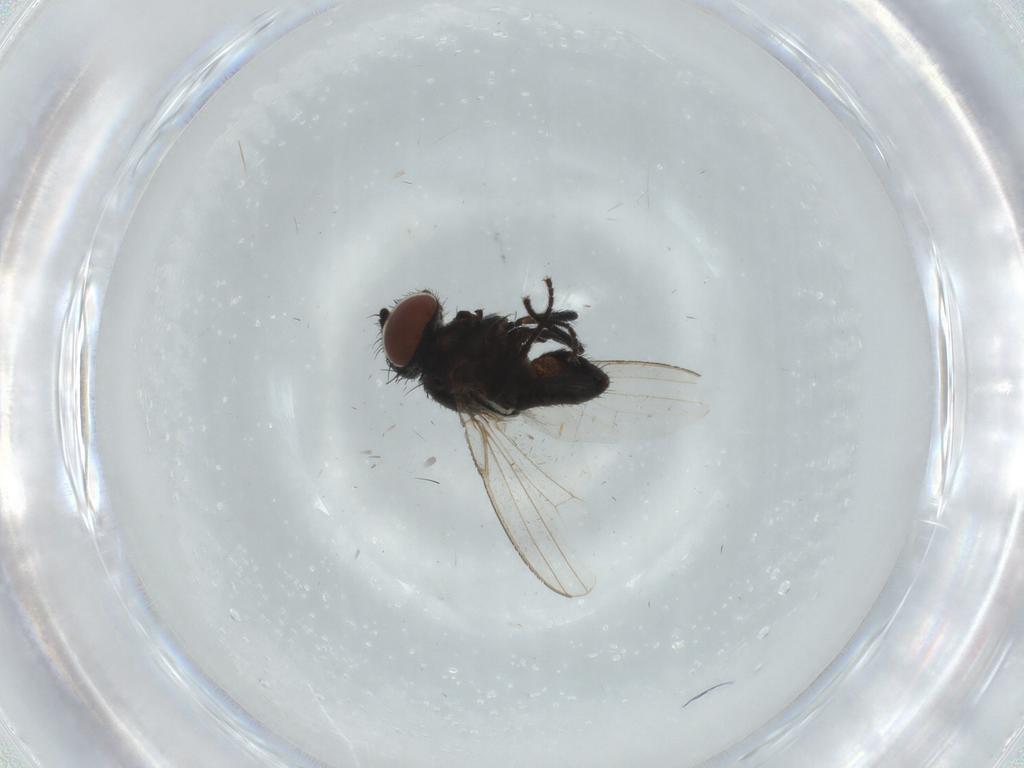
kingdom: Animalia
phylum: Arthropoda
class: Insecta
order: Diptera
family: Milichiidae
